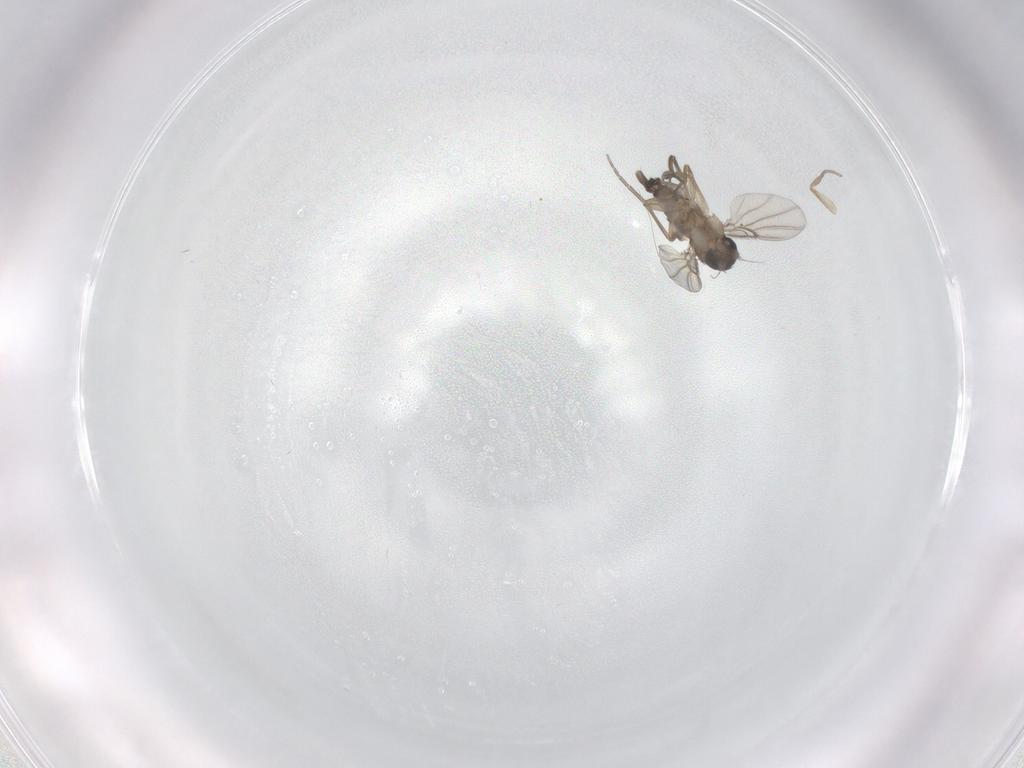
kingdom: Animalia
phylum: Arthropoda
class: Insecta
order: Diptera
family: Phoridae
